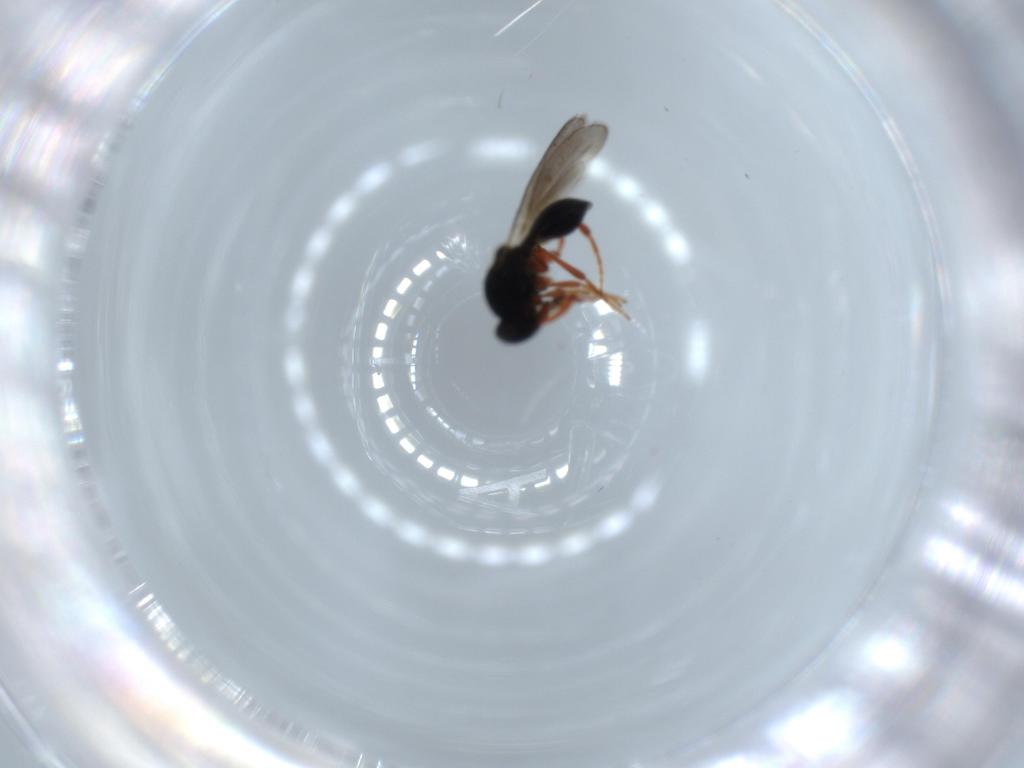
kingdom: Animalia
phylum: Arthropoda
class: Insecta
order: Hymenoptera
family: Platygastridae
